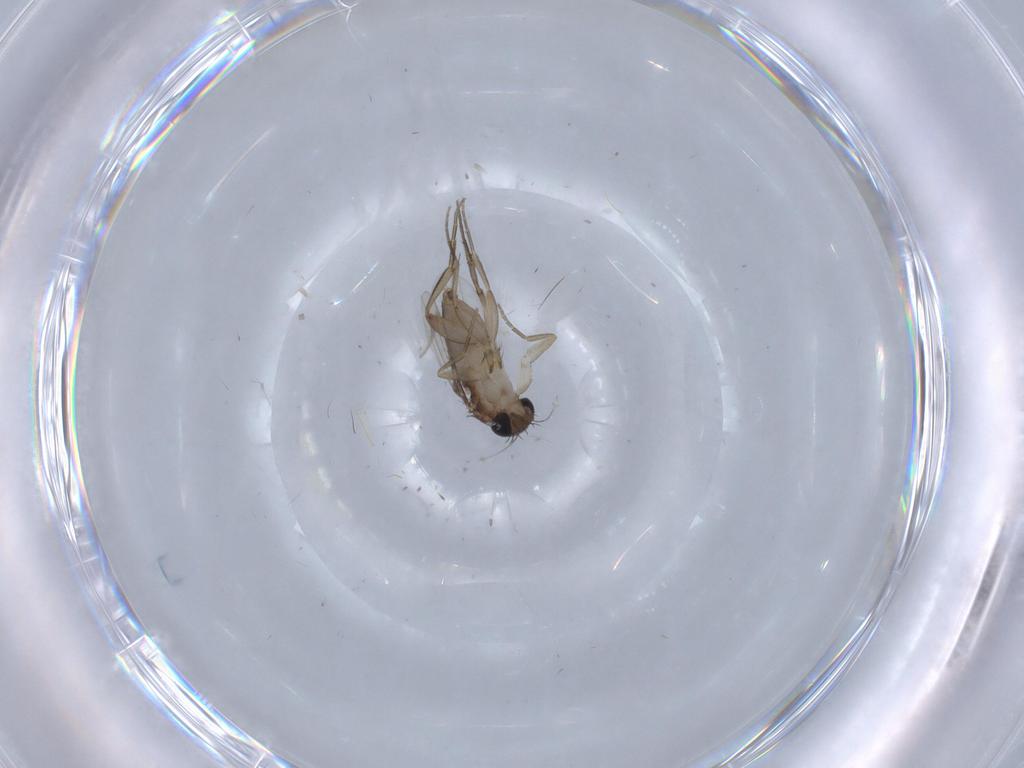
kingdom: Animalia
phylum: Arthropoda
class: Insecta
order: Diptera
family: Phoridae
